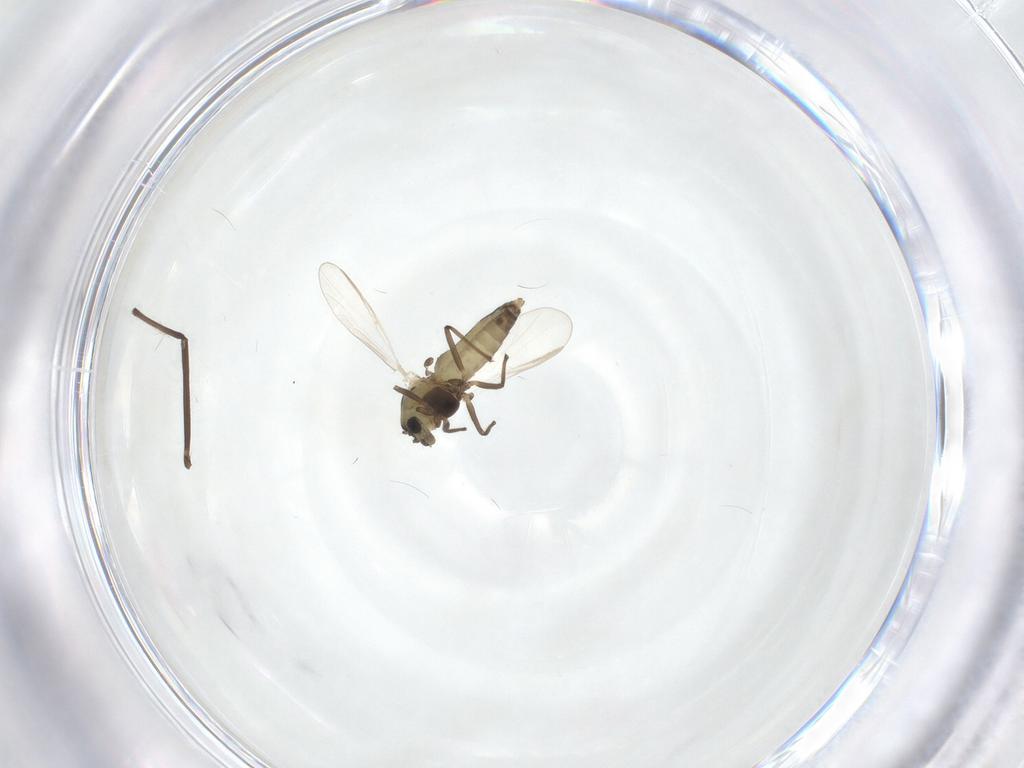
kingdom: Animalia
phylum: Arthropoda
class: Insecta
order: Diptera
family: Chironomidae
